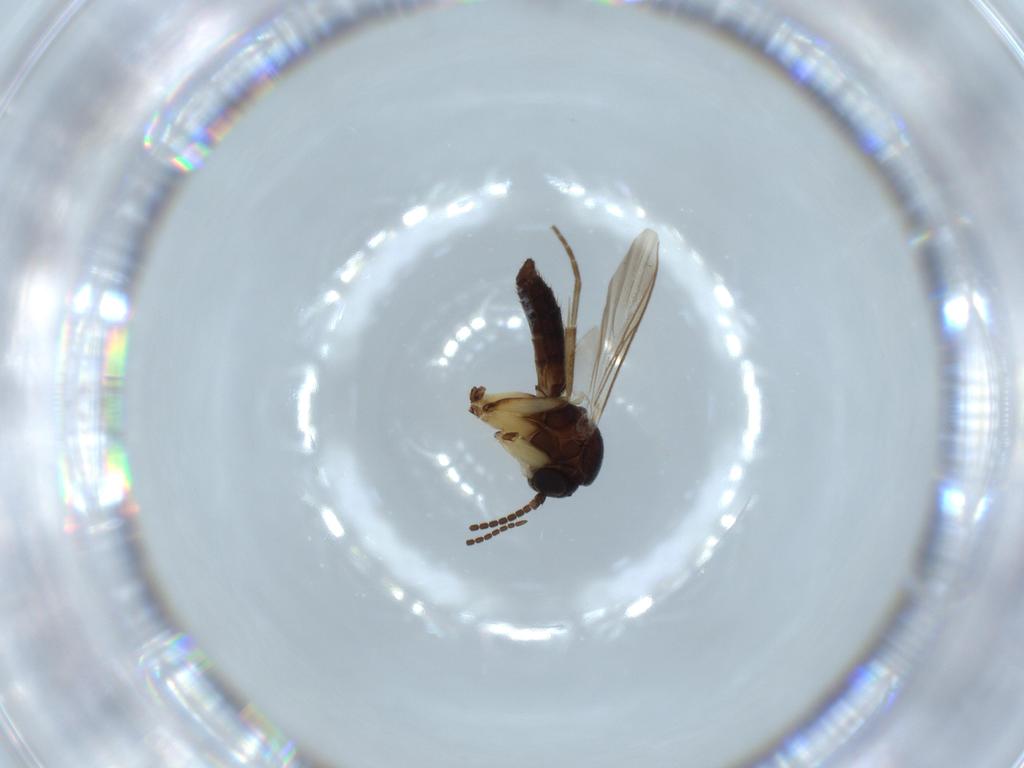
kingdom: Animalia
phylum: Arthropoda
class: Insecta
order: Diptera
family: Mycetophilidae
